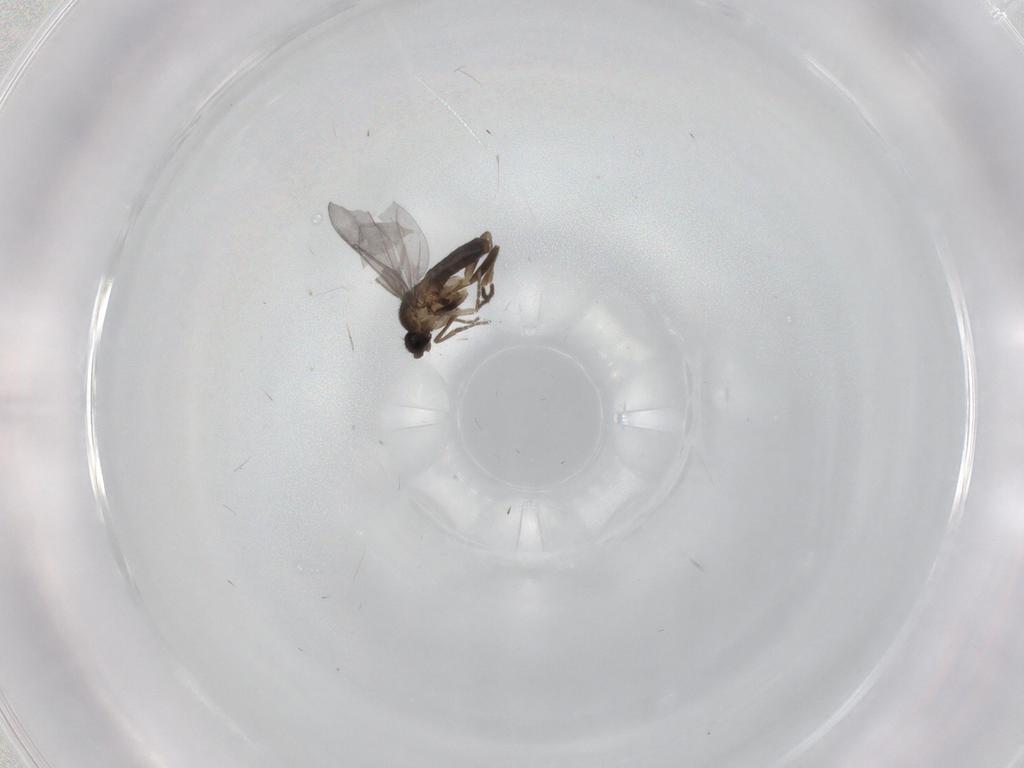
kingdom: Animalia
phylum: Arthropoda
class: Insecta
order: Diptera
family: Phoridae
